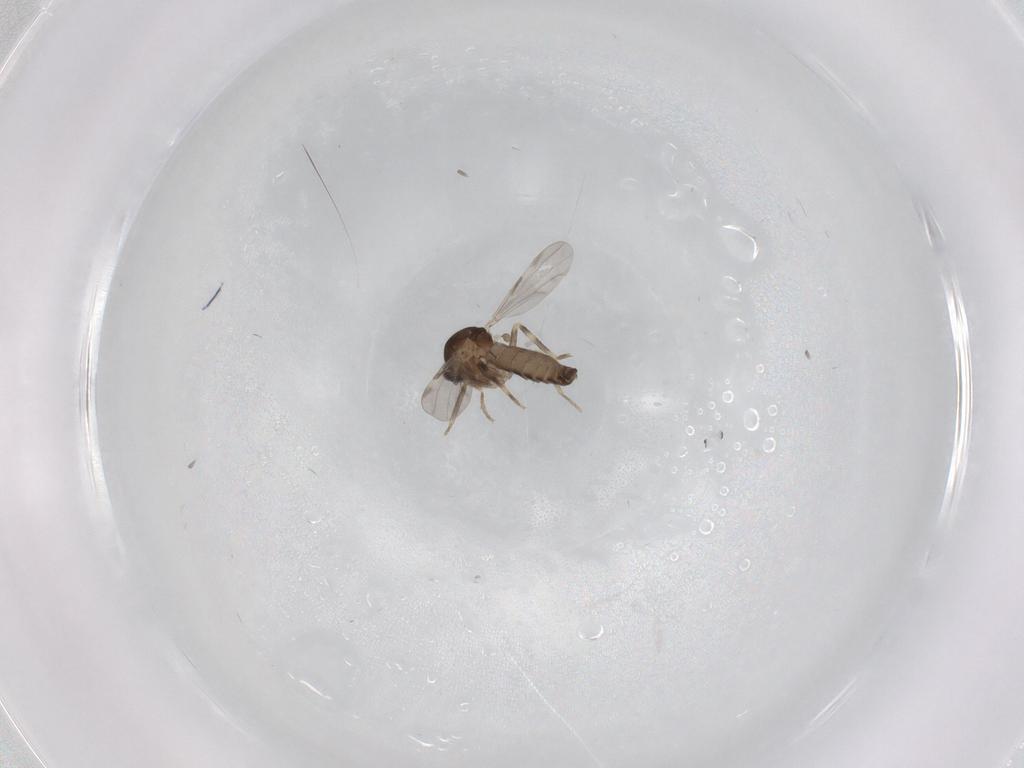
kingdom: Animalia
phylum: Arthropoda
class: Insecta
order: Diptera
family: Ceratopogonidae
